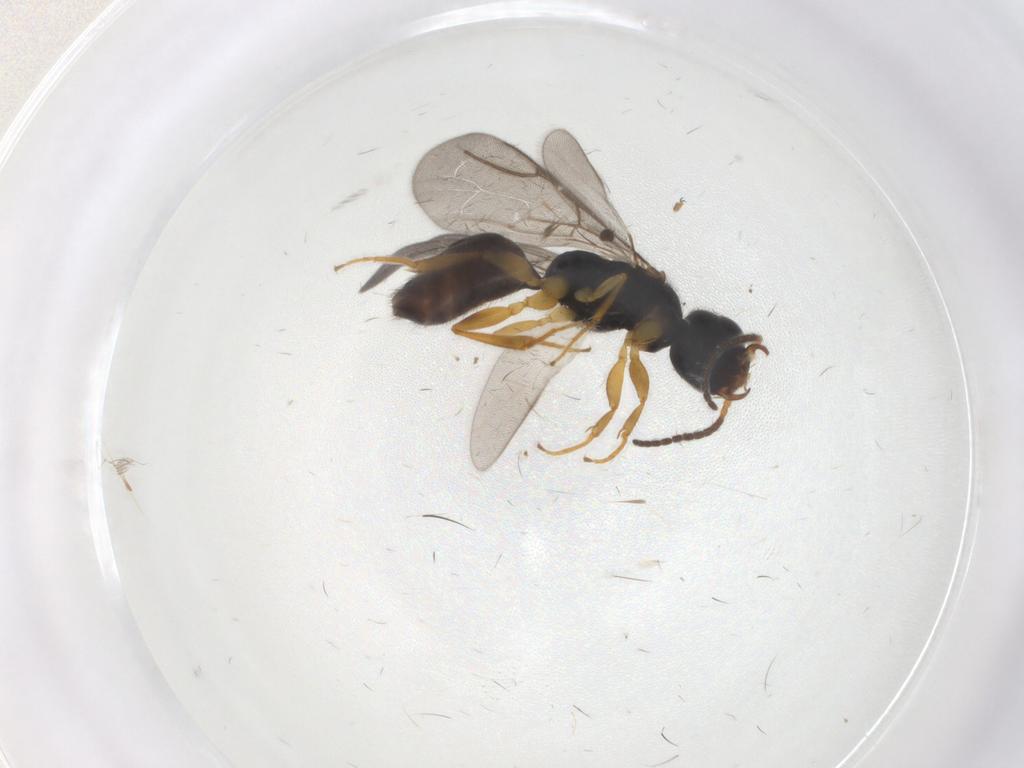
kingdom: Animalia
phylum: Arthropoda
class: Insecta
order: Hymenoptera
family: Bethylidae
